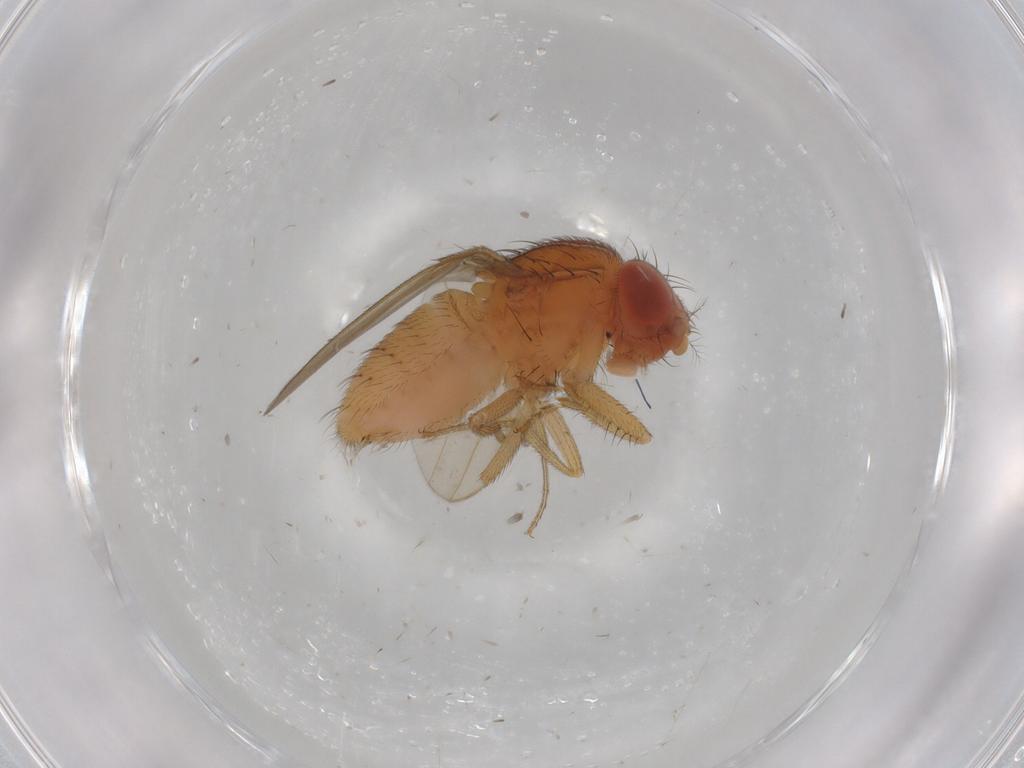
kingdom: Animalia
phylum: Arthropoda
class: Insecta
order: Diptera
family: Drosophilidae
